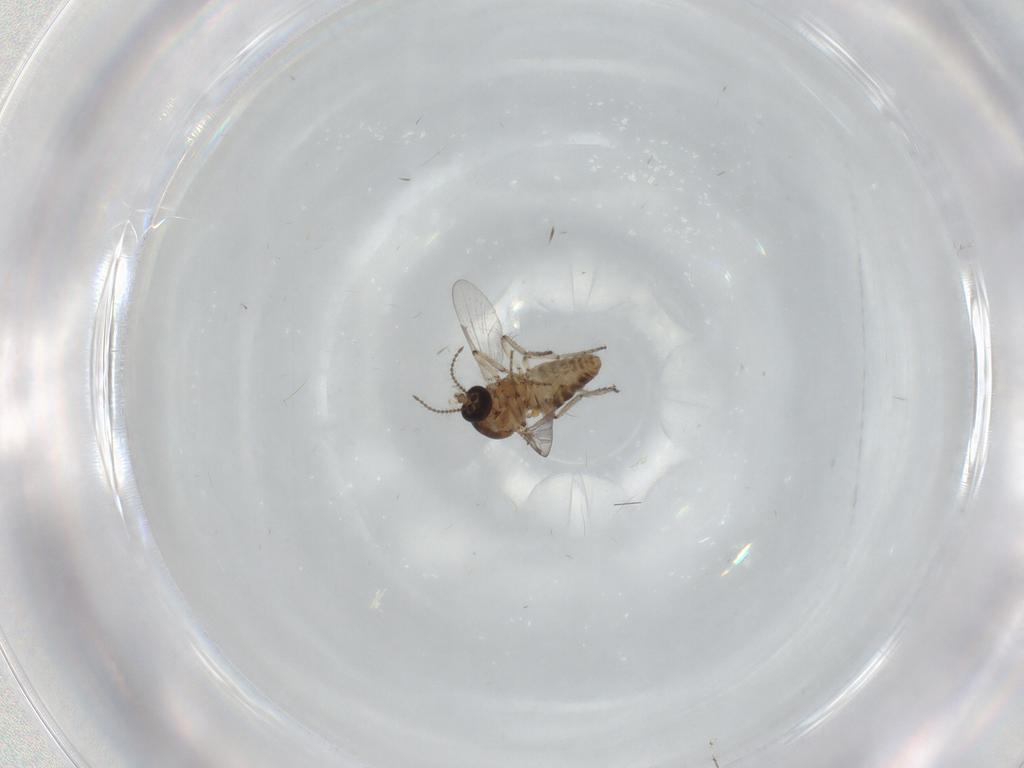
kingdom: Animalia
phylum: Arthropoda
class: Insecta
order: Diptera
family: Ceratopogonidae
